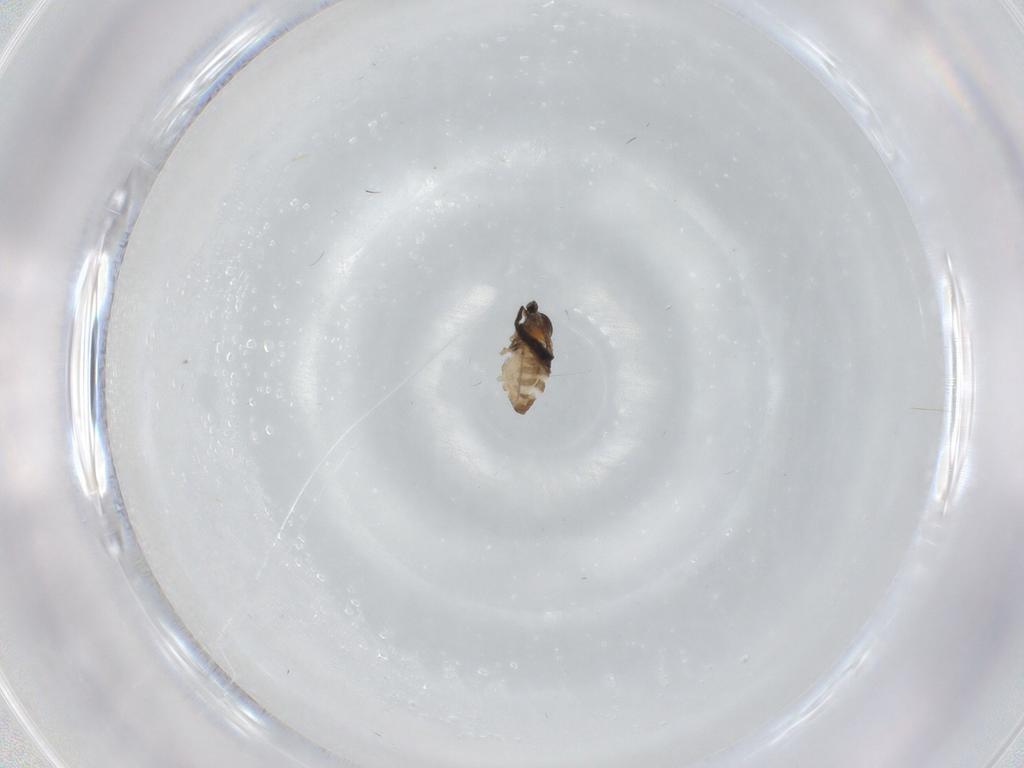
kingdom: Animalia
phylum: Arthropoda
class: Insecta
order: Diptera
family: Cecidomyiidae
